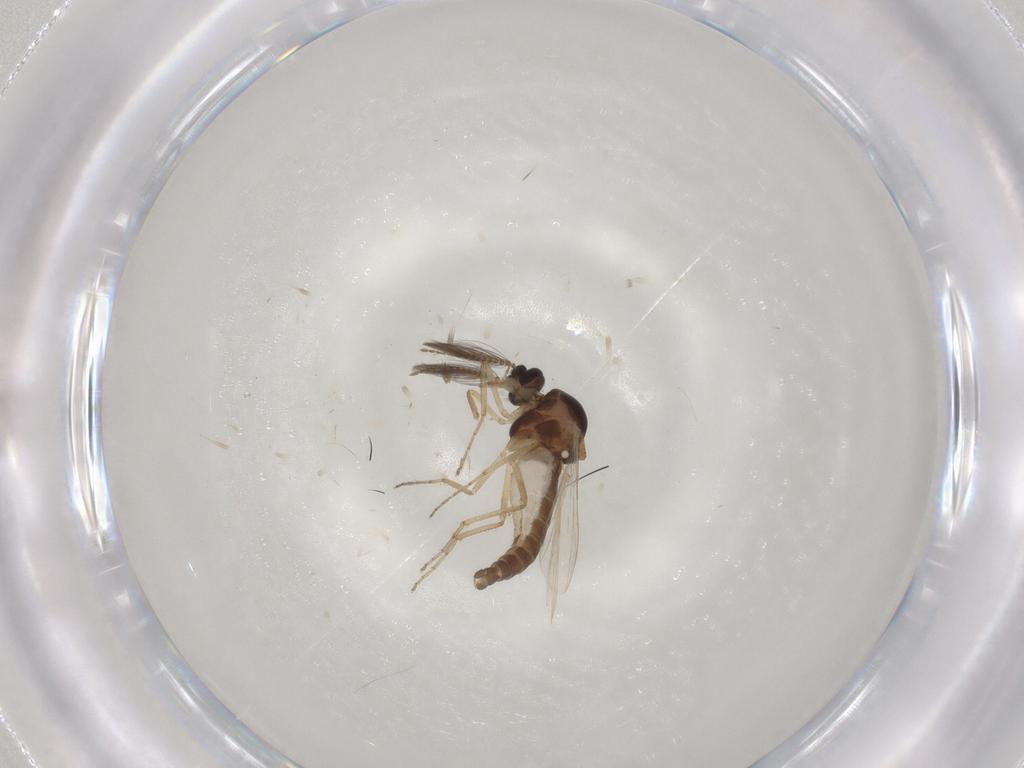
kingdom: Animalia
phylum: Arthropoda
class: Insecta
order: Diptera
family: Ceratopogonidae
